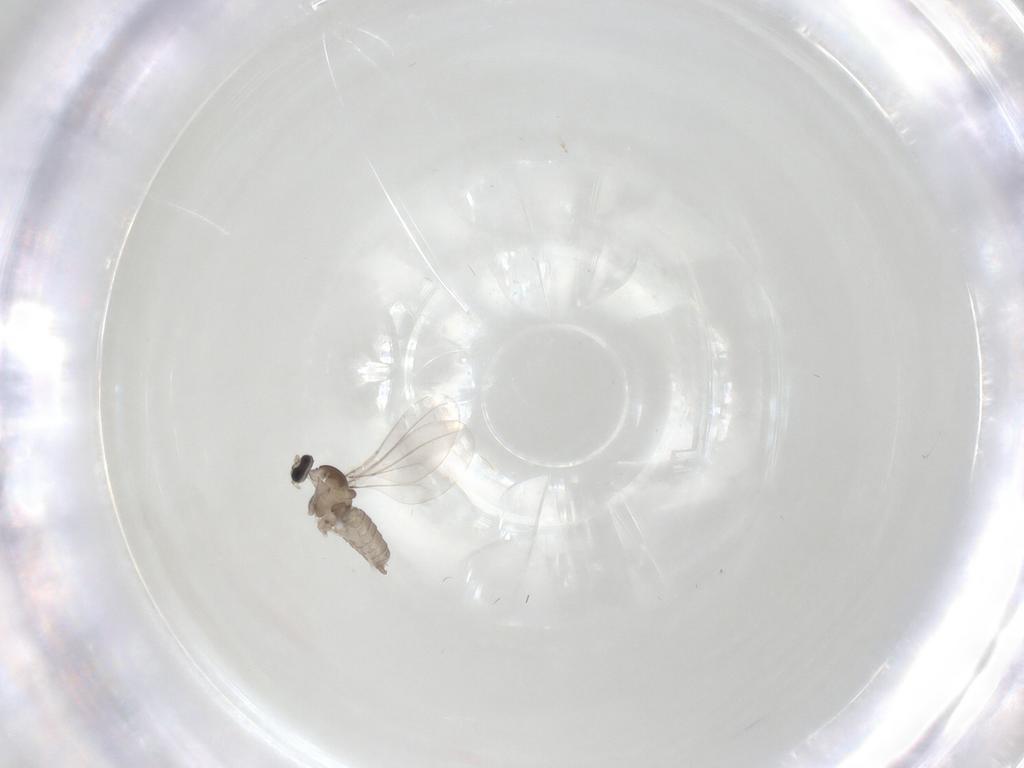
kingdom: Animalia
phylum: Arthropoda
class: Insecta
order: Diptera
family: Cecidomyiidae
